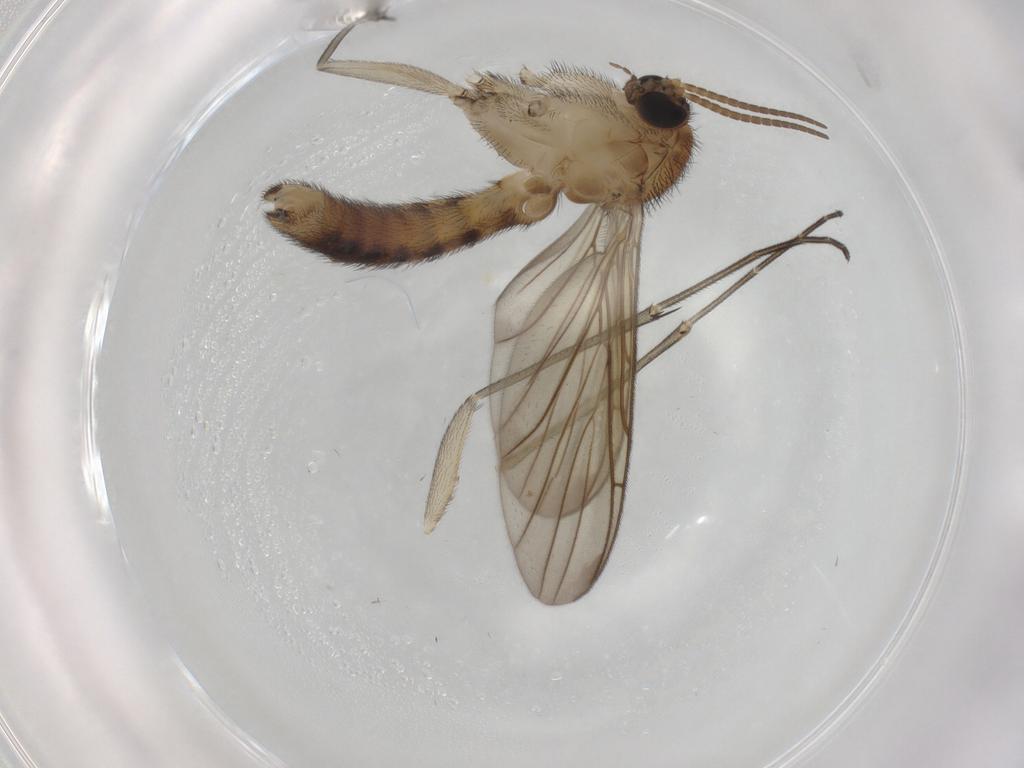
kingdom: Animalia
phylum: Arthropoda
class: Insecta
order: Diptera
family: Keroplatidae
